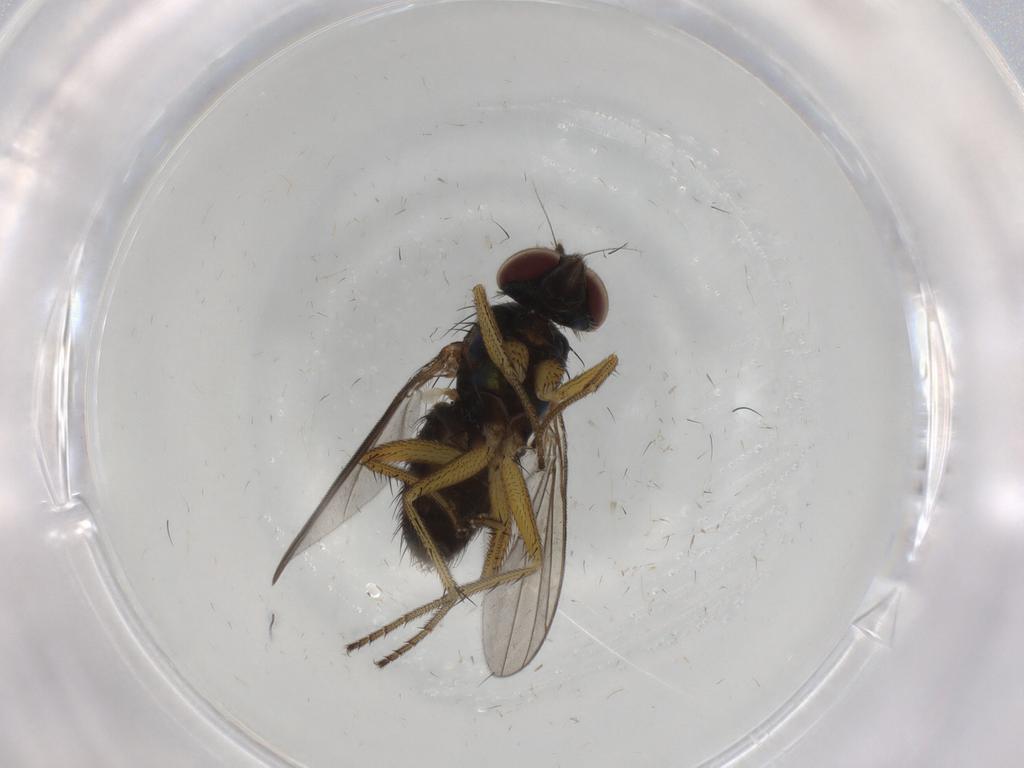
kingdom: Animalia
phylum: Arthropoda
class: Insecta
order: Diptera
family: Dolichopodidae
